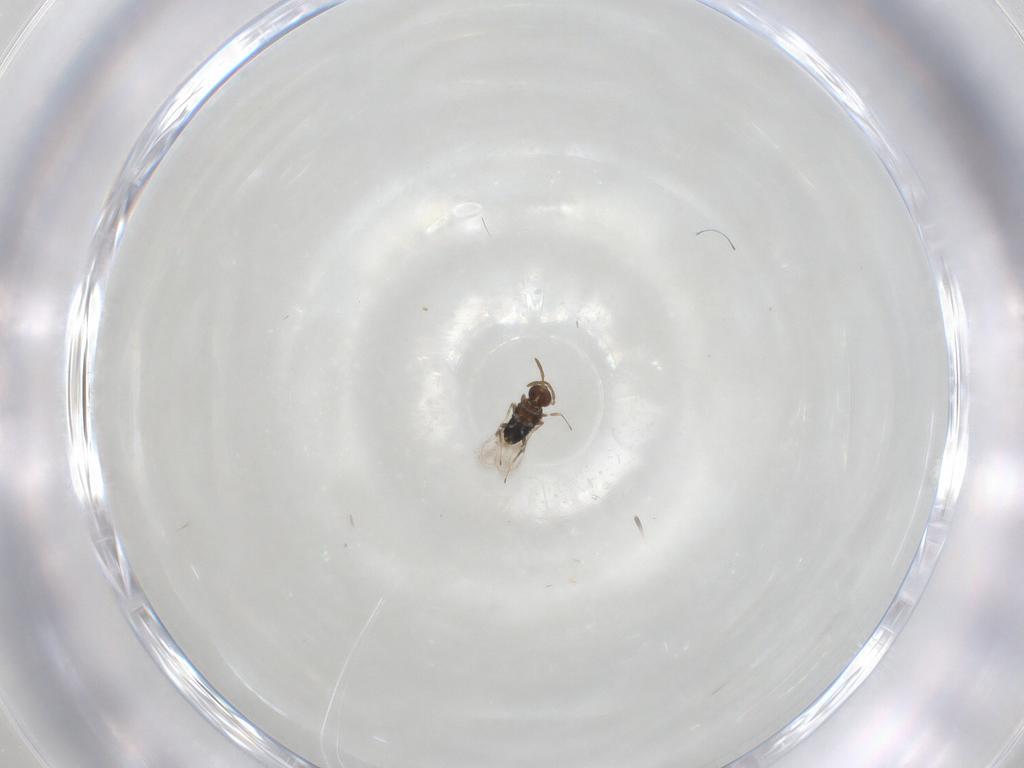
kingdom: Animalia
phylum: Arthropoda
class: Insecta
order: Hymenoptera
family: Azotidae
